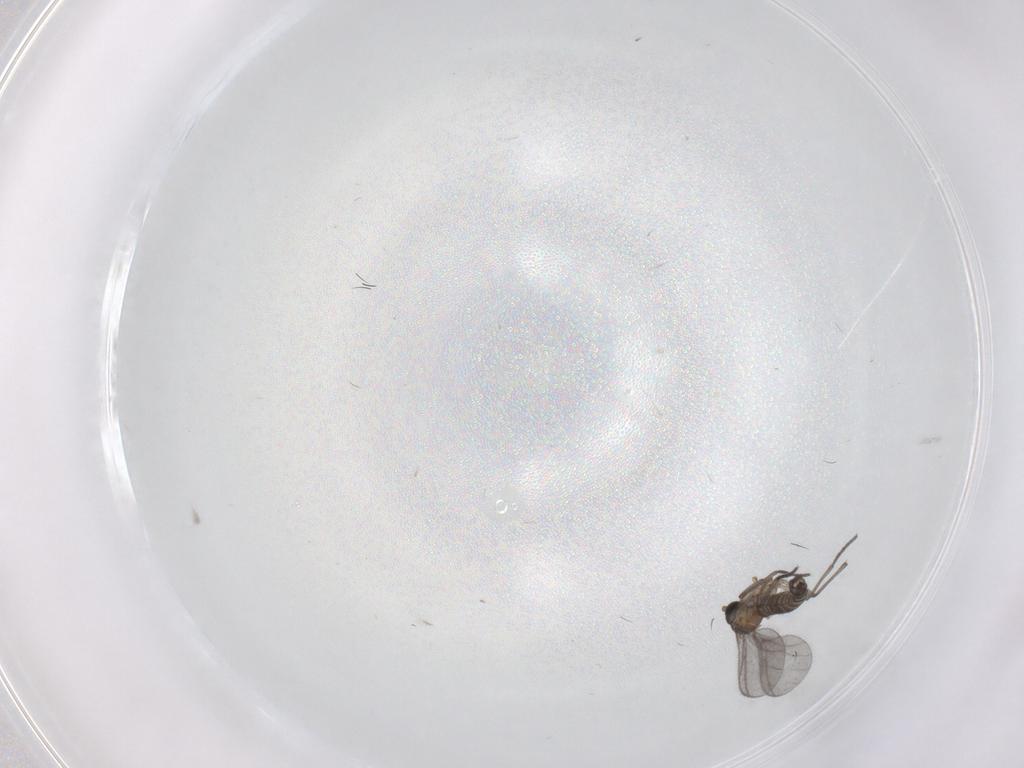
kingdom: Animalia
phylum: Arthropoda
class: Insecta
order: Diptera
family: Sciaridae
